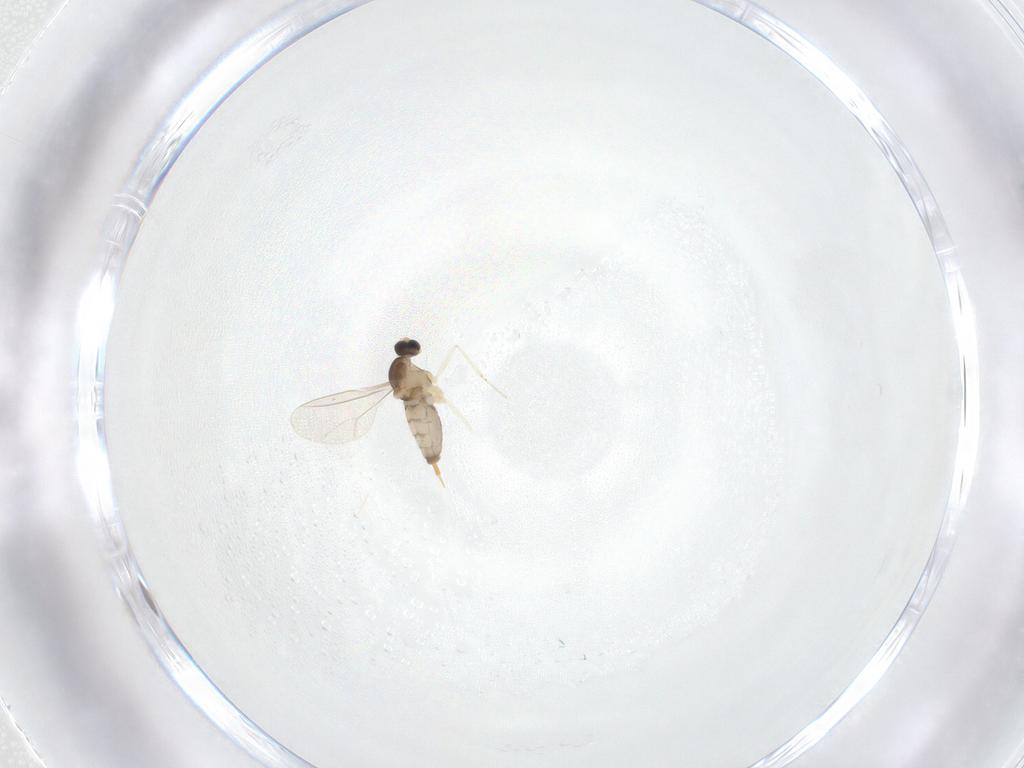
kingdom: Animalia
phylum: Arthropoda
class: Insecta
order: Diptera
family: Cecidomyiidae
